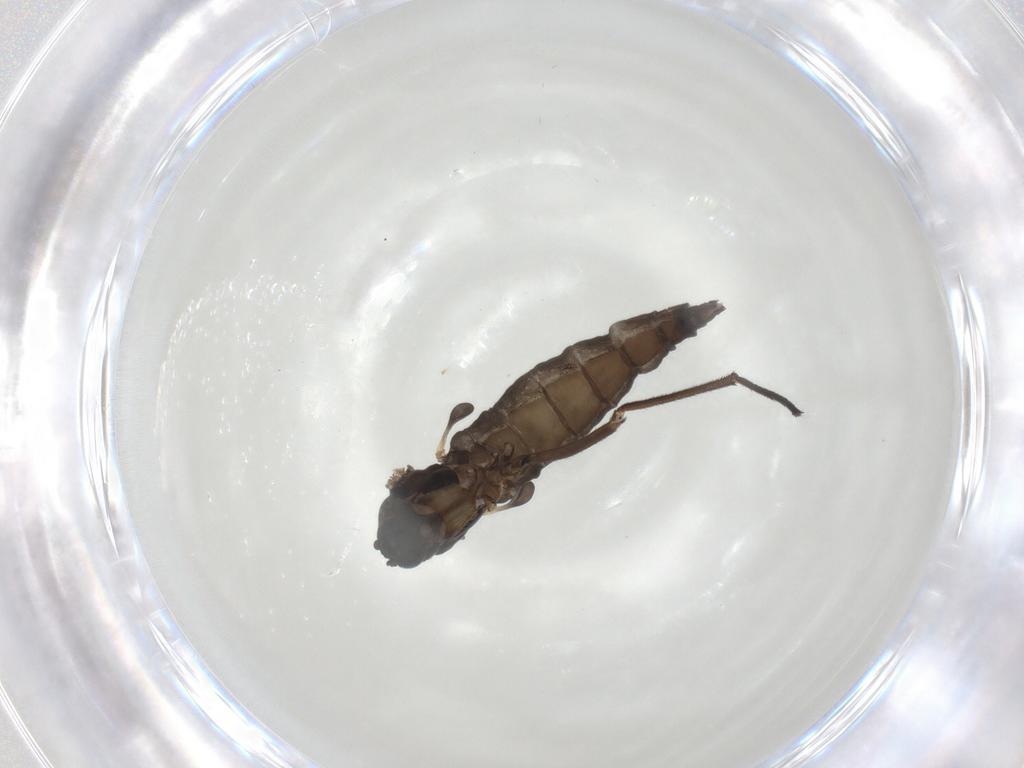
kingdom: Animalia
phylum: Arthropoda
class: Insecta
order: Diptera
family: Sciaridae
